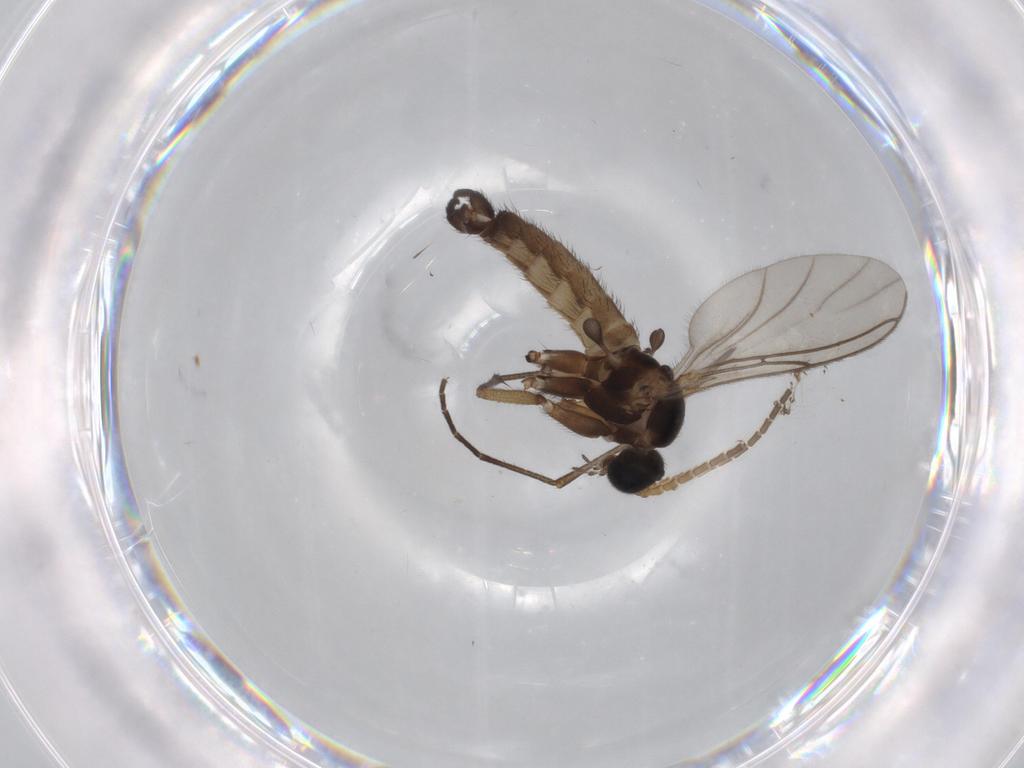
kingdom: Animalia
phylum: Arthropoda
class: Insecta
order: Diptera
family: Sciaridae
